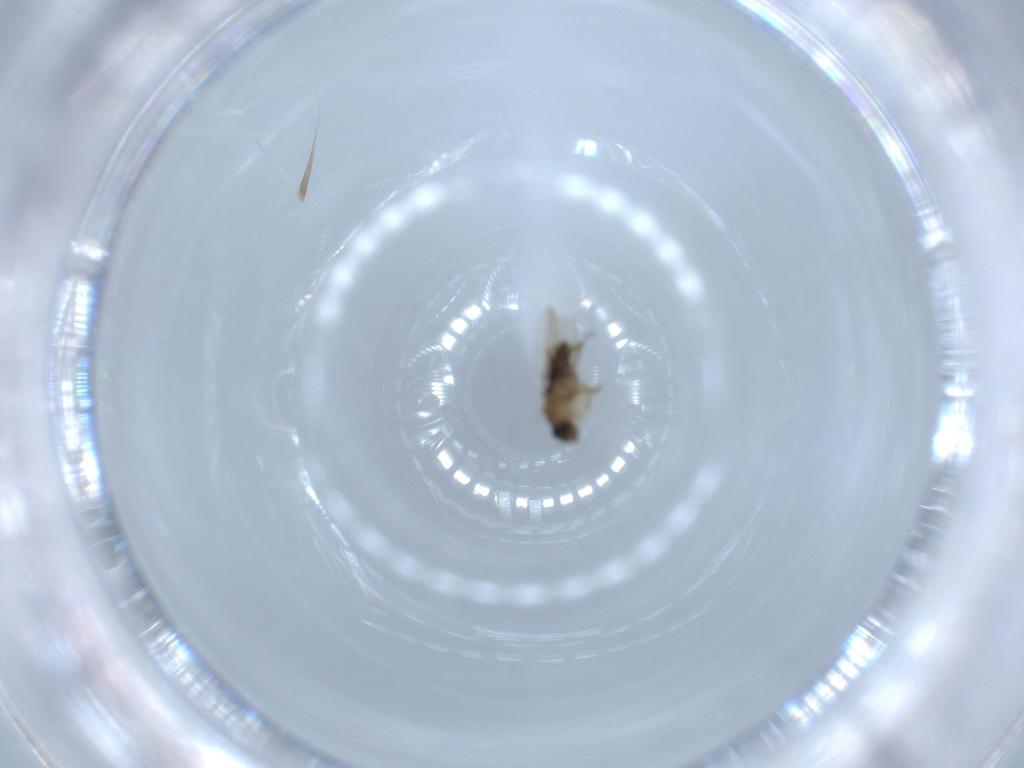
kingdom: Animalia
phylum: Arthropoda
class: Insecta
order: Diptera
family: Phoridae
